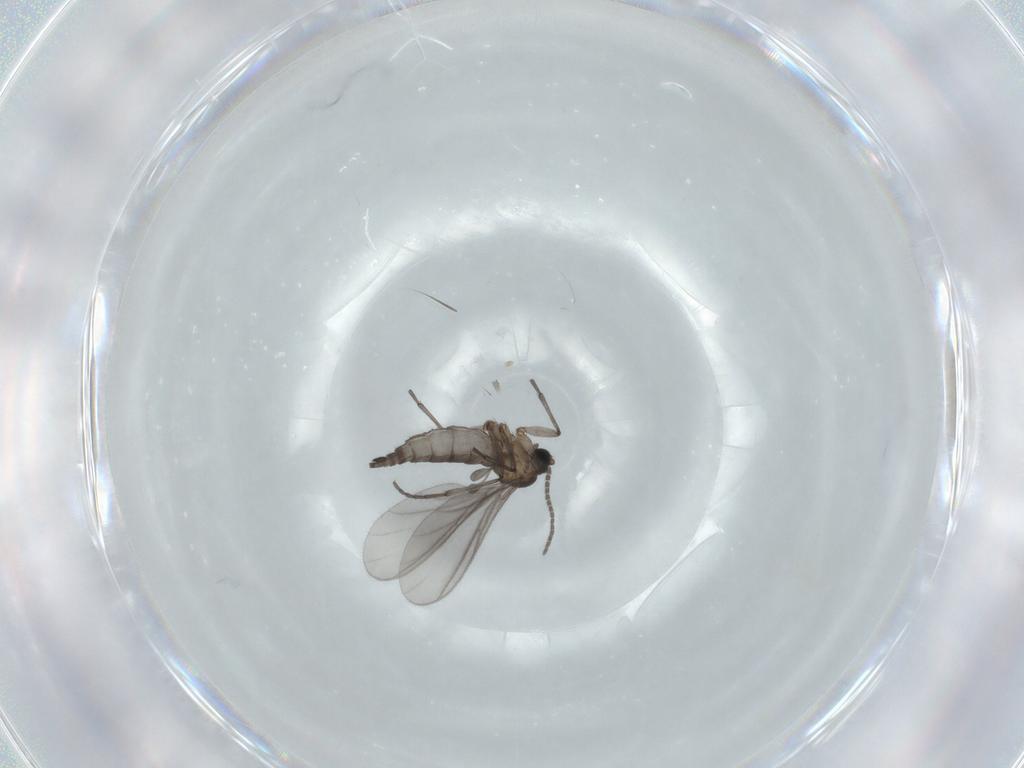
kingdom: Animalia
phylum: Arthropoda
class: Insecta
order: Diptera
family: Sciaridae
